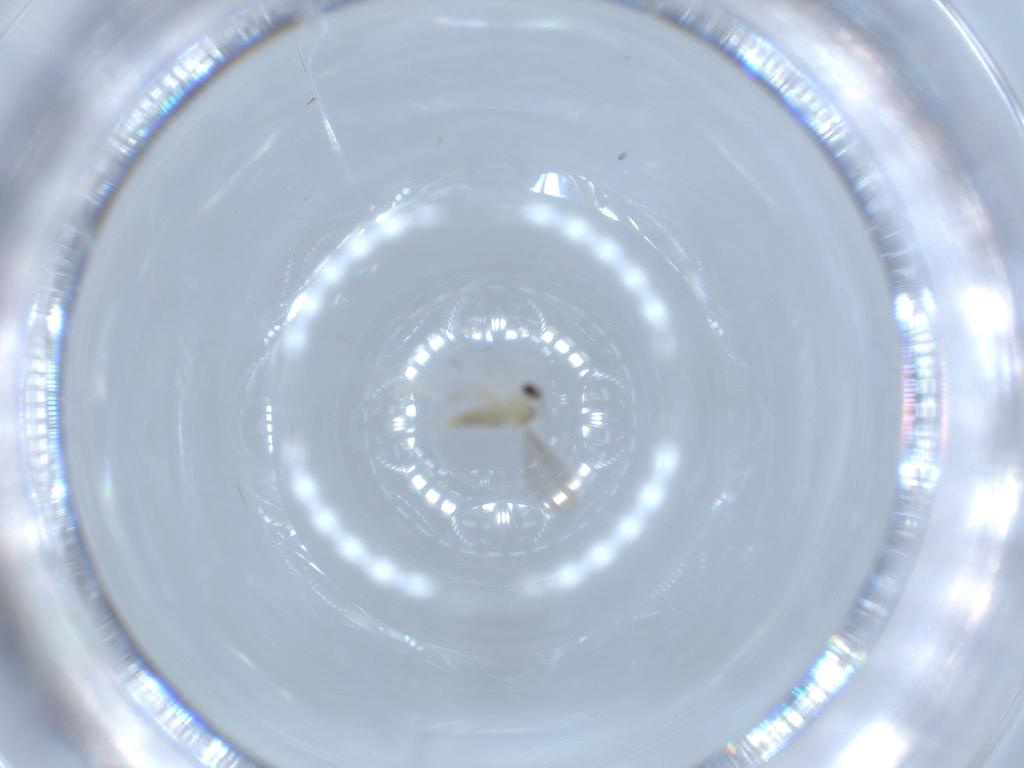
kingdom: Animalia
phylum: Arthropoda
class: Insecta
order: Diptera
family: Cecidomyiidae
